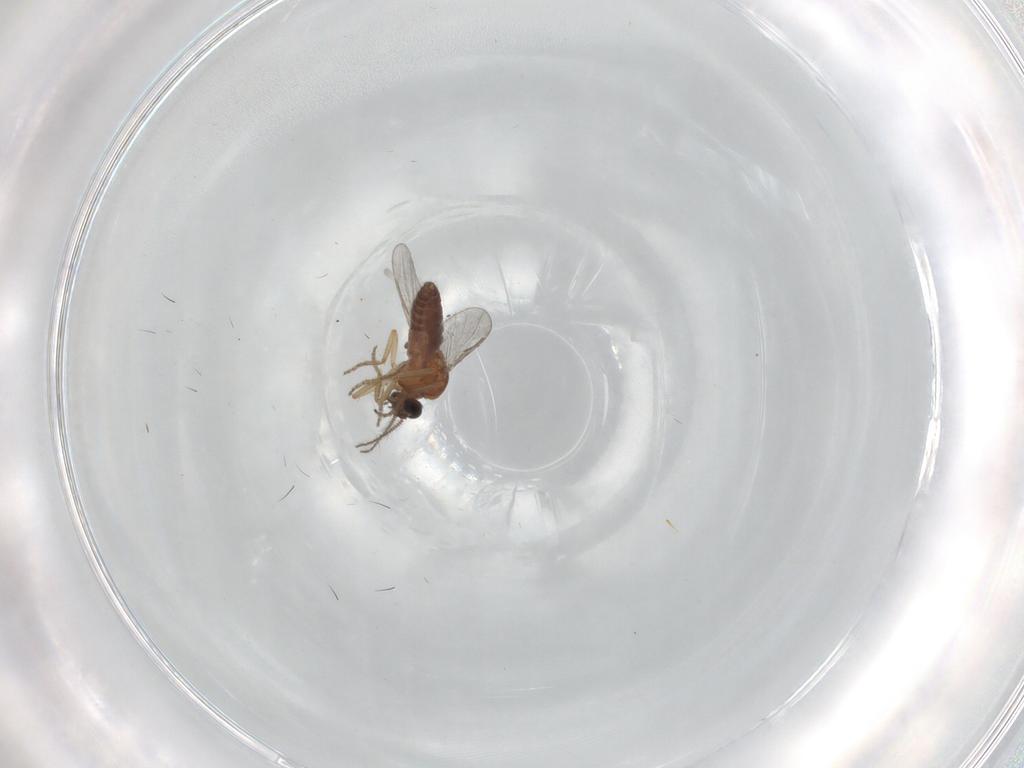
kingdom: Animalia
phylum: Arthropoda
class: Insecta
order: Diptera
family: Ceratopogonidae
